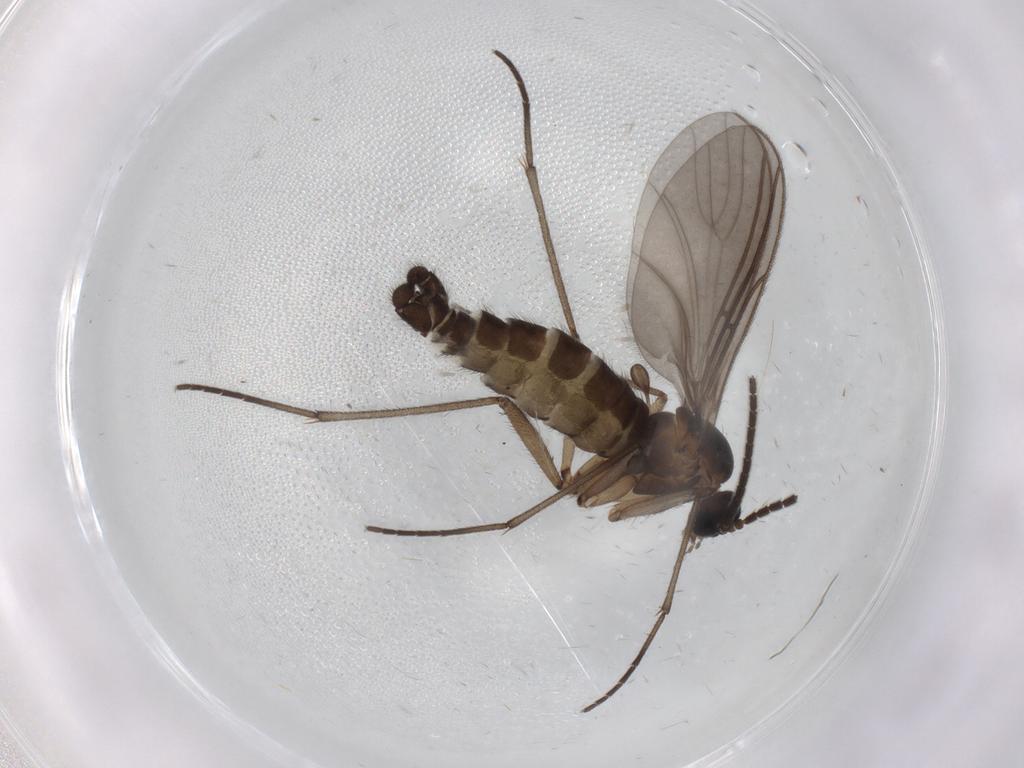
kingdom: Animalia
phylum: Arthropoda
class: Insecta
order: Diptera
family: Sciaridae
